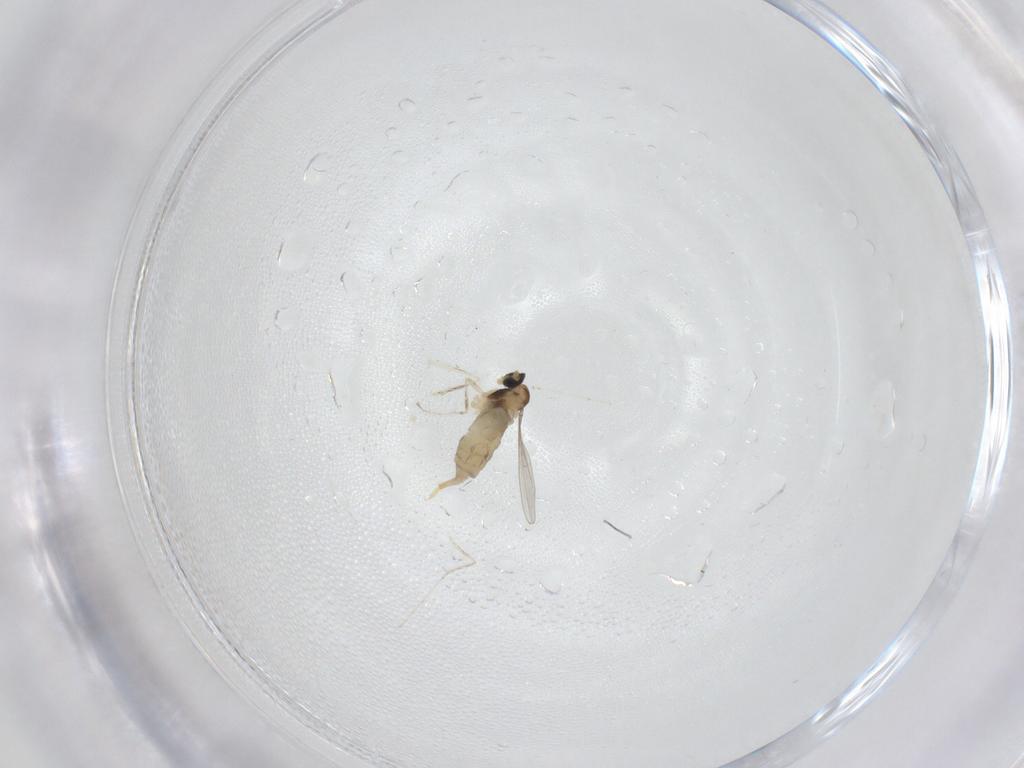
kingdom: Animalia
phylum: Arthropoda
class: Insecta
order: Diptera
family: Cecidomyiidae
